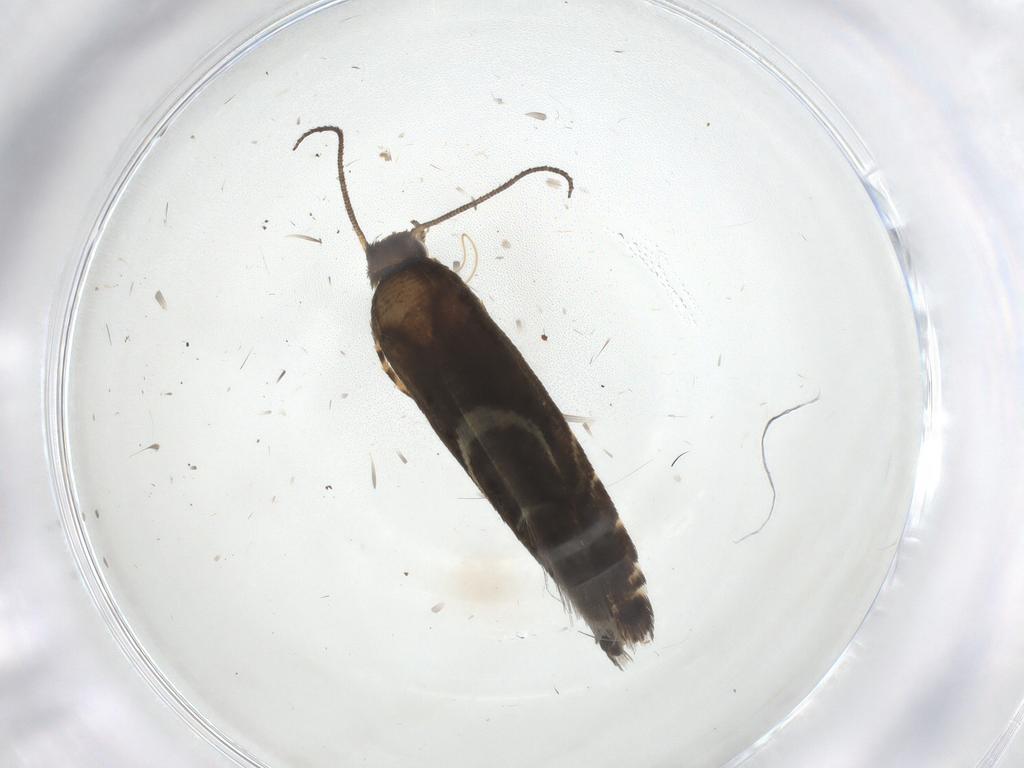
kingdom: Animalia
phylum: Arthropoda
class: Insecta
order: Lepidoptera
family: Glyphipterigidae
